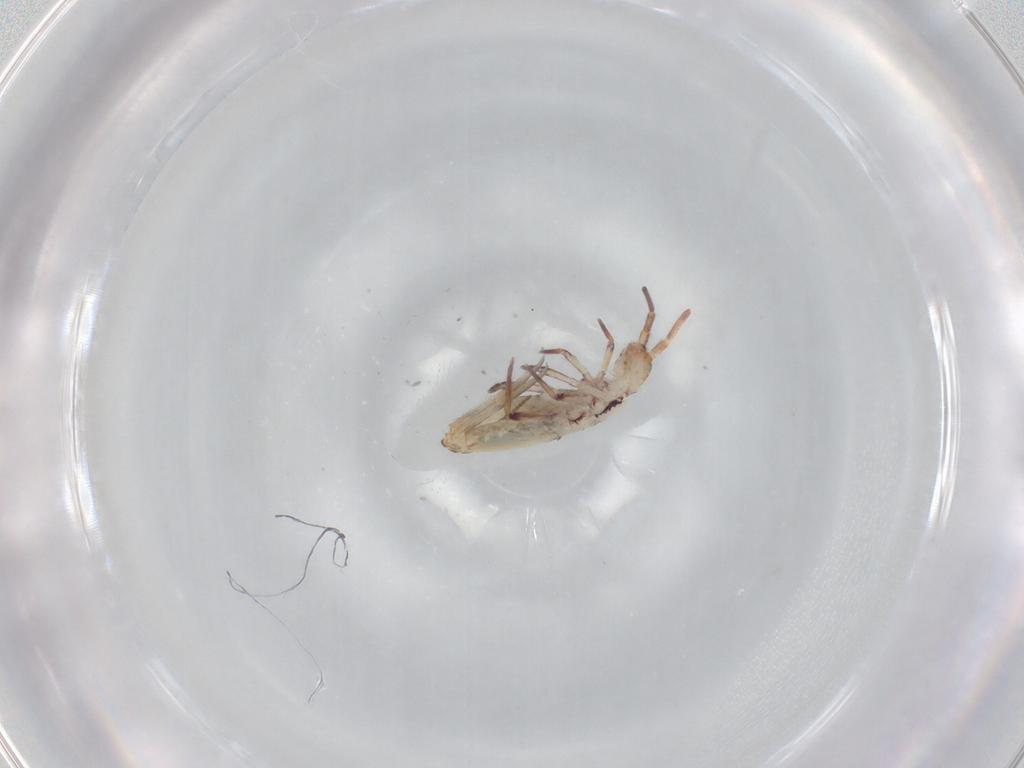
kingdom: Animalia
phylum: Arthropoda
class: Collembola
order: Entomobryomorpha
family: Entomobryidae
